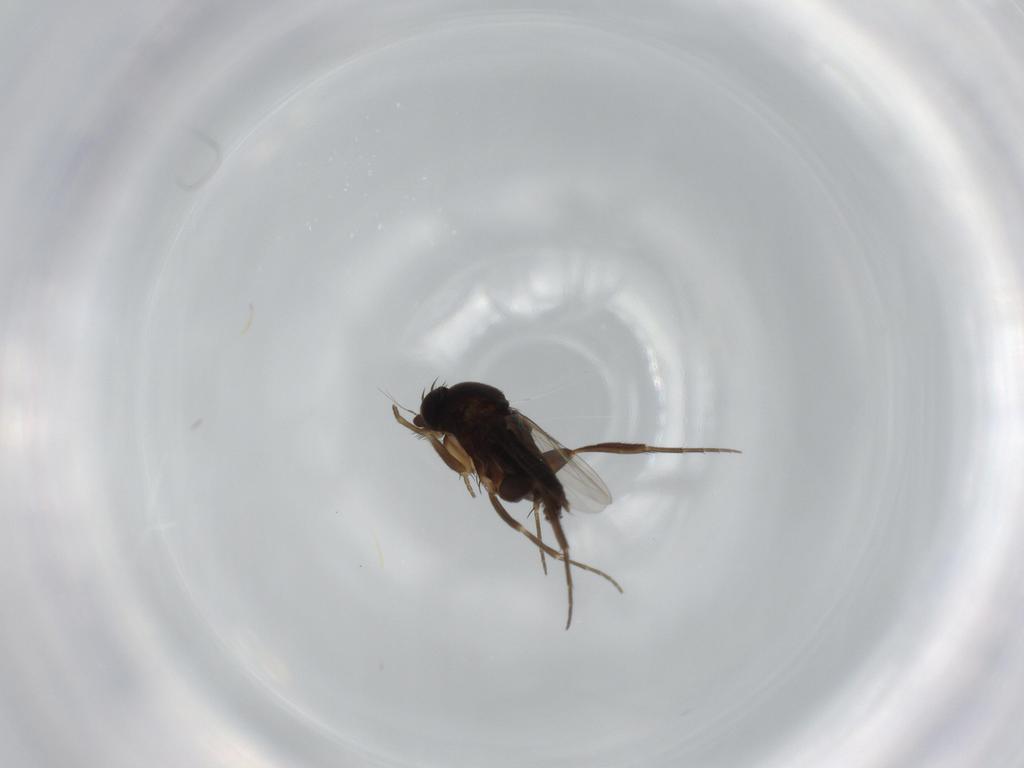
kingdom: Animalia
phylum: Arthropoda
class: Insecta
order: Diptera
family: Phoridae
